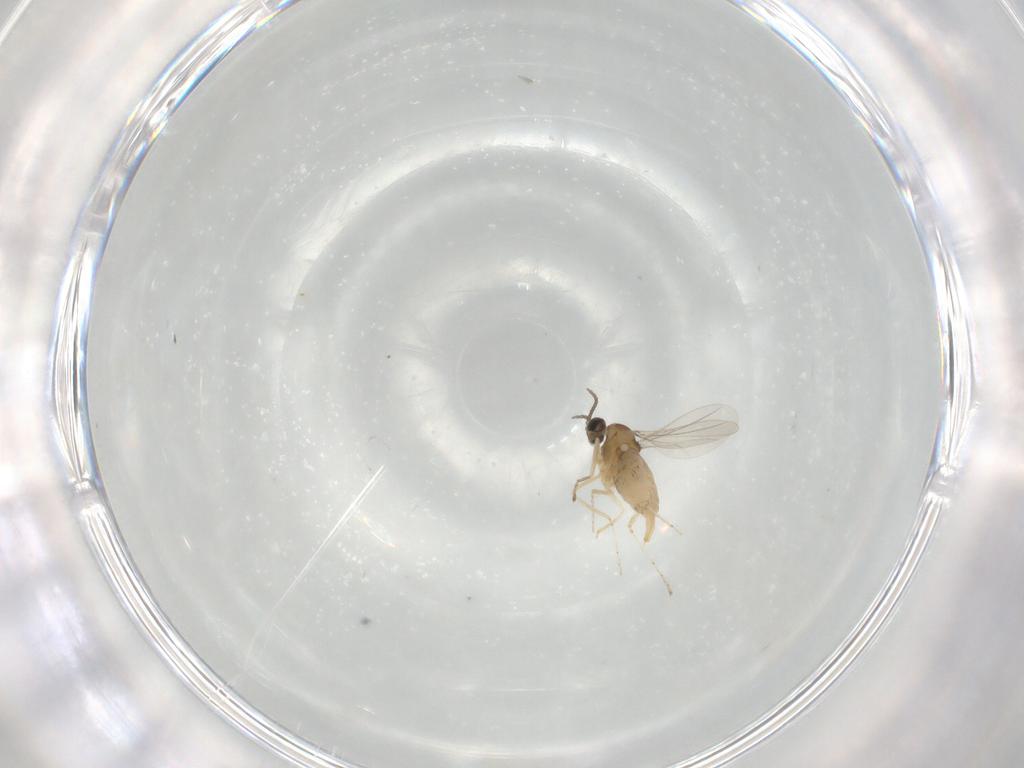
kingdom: Animalia
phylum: Arthropoda
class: Insecta
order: Diptera
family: Cecidomyiidae
